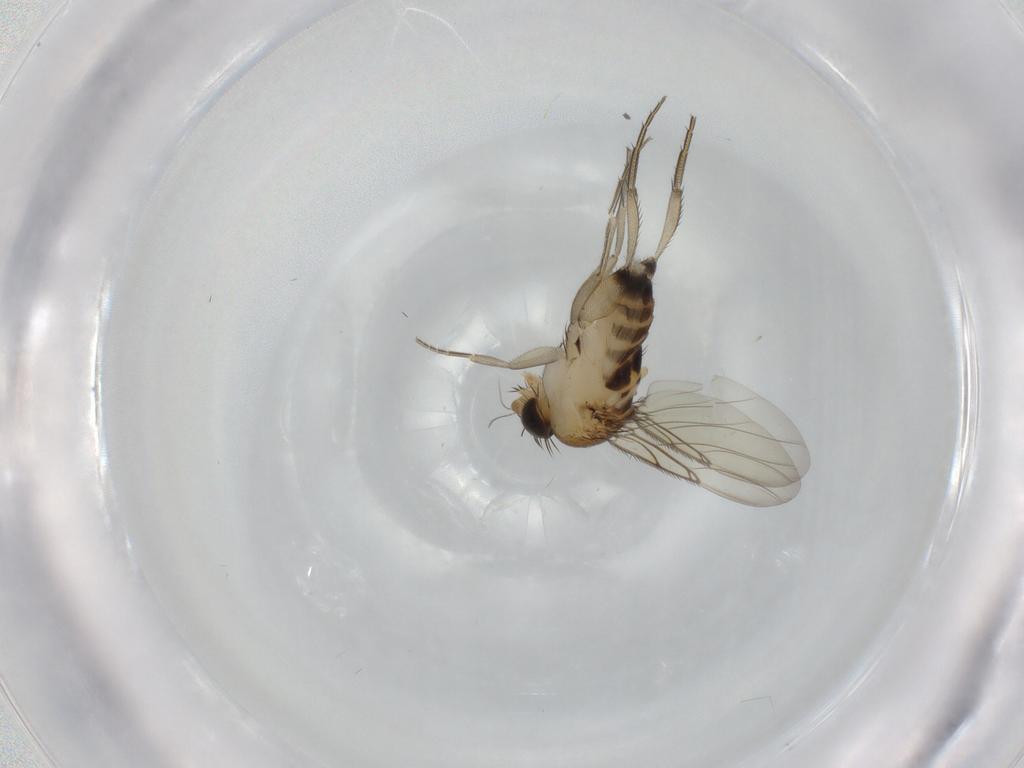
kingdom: Animalia
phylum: Arthropoda
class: Insecta
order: Diptera
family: Phoridae
